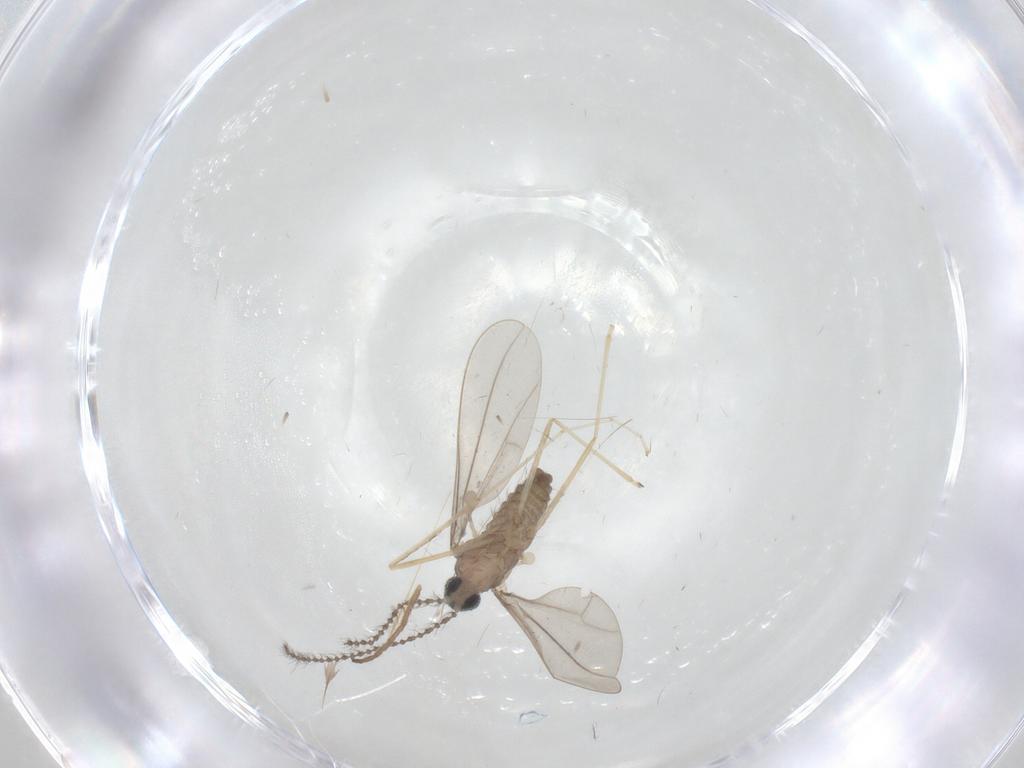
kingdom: Animalia
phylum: Arthropoda
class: Insecta
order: Diptera
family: Cecidomyiidae
